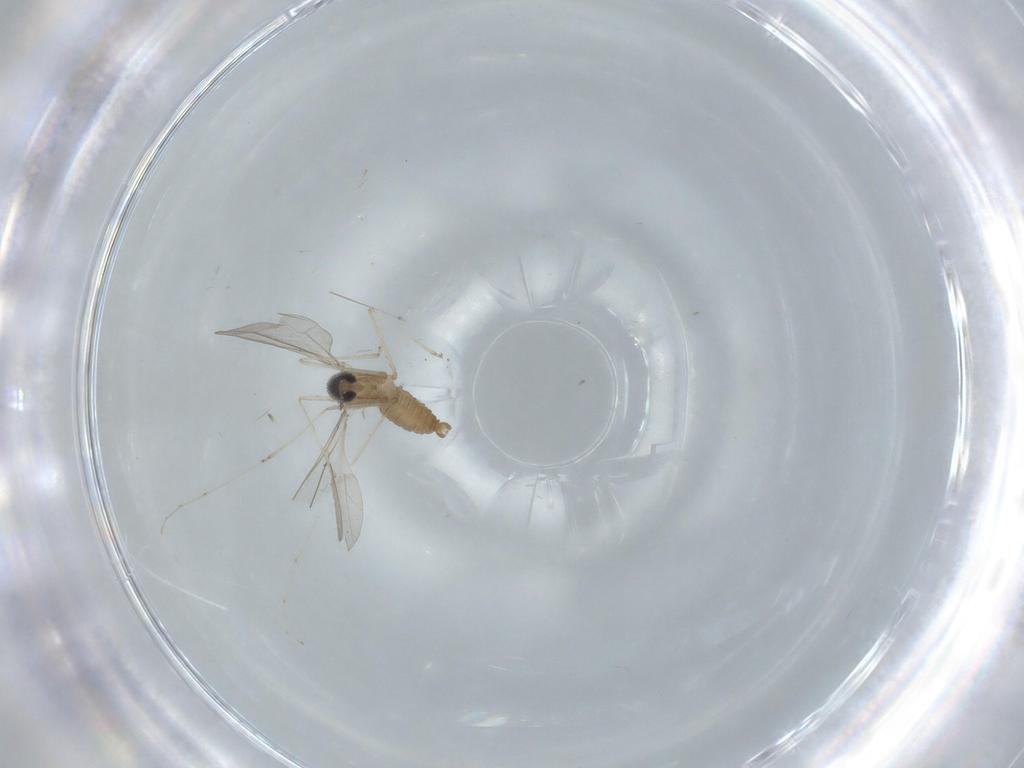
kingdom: Animalia
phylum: Arthropoda
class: Insecta
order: Diptera
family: Cecidomyiidae
